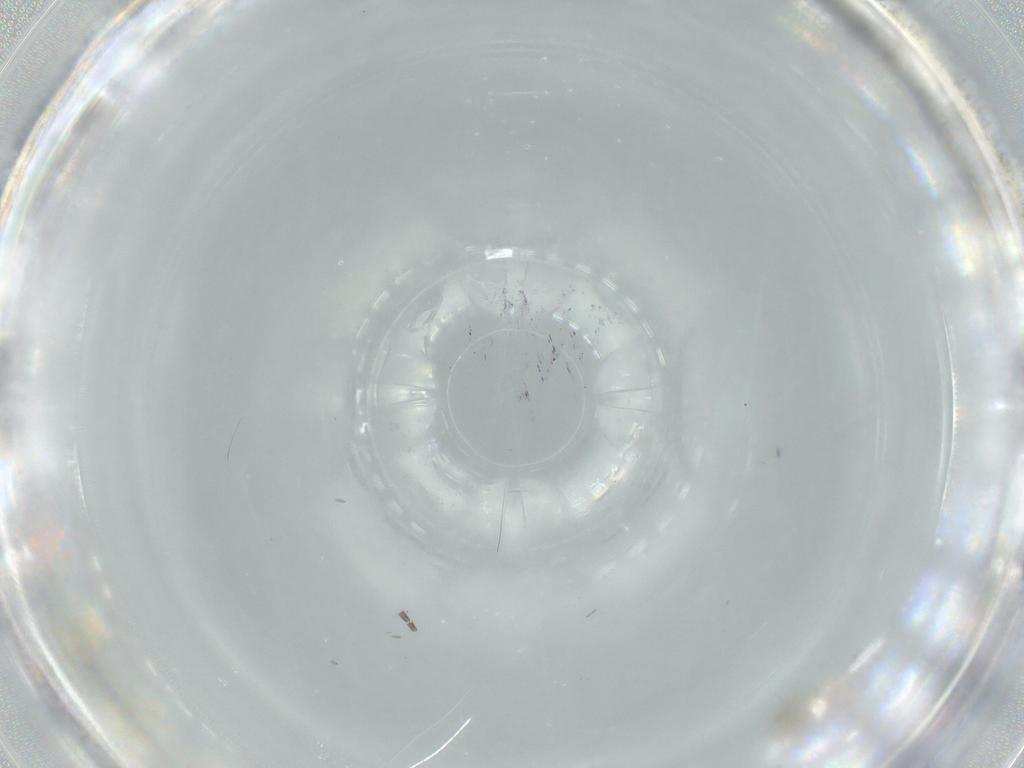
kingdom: Animalia
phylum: Arthropoda
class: Insecta
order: Diptera
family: Cecidomyiidae
